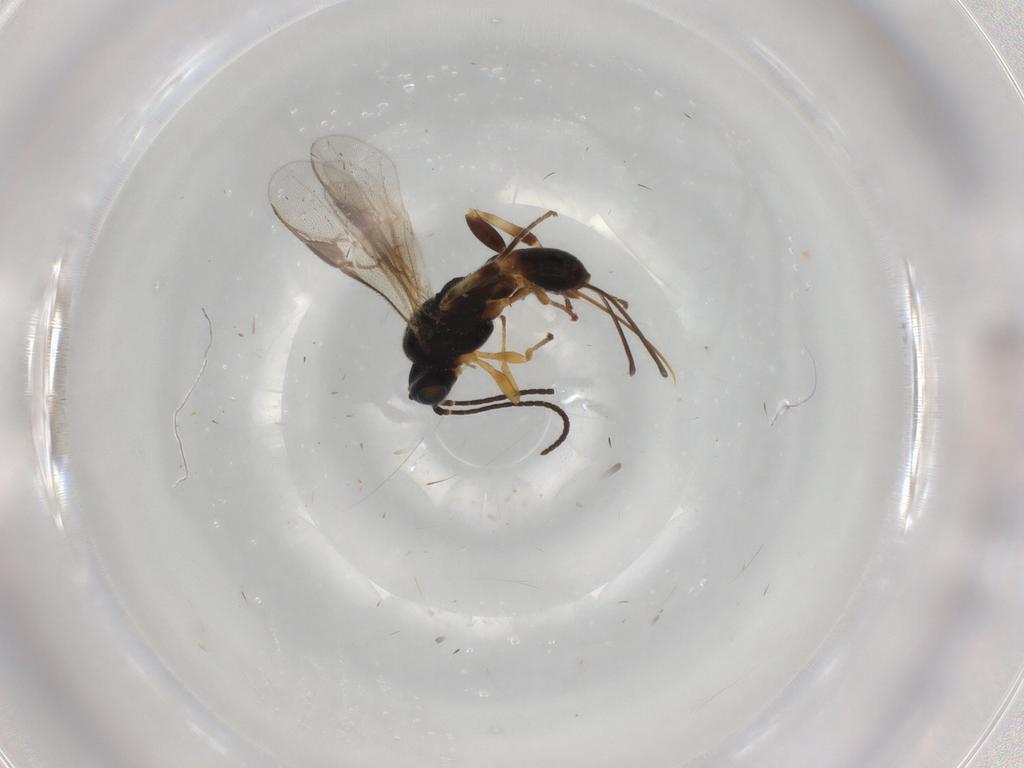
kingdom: Animalia
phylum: Arthropoda
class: Insecta
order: Hymenoptera
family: Braconidae
